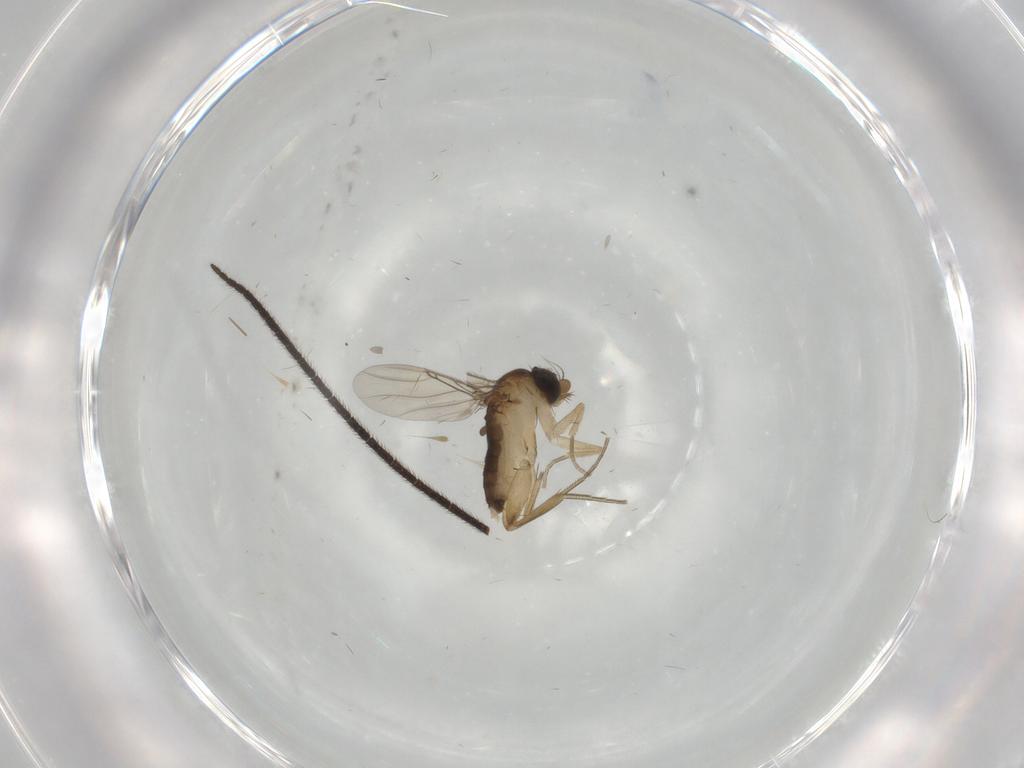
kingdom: Animalia
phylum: Arthropoda
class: Insecta
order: Diptera
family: Phoridae
